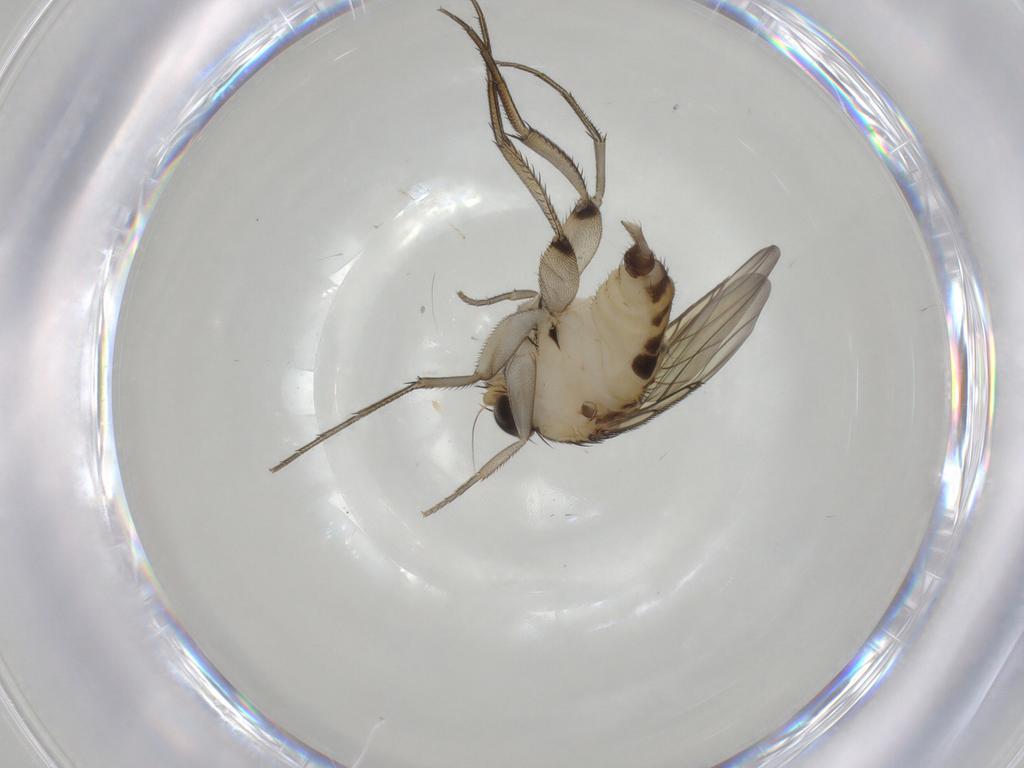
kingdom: Animalia
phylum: Arthropoda
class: Insecta
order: Diptera
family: Phoridae
